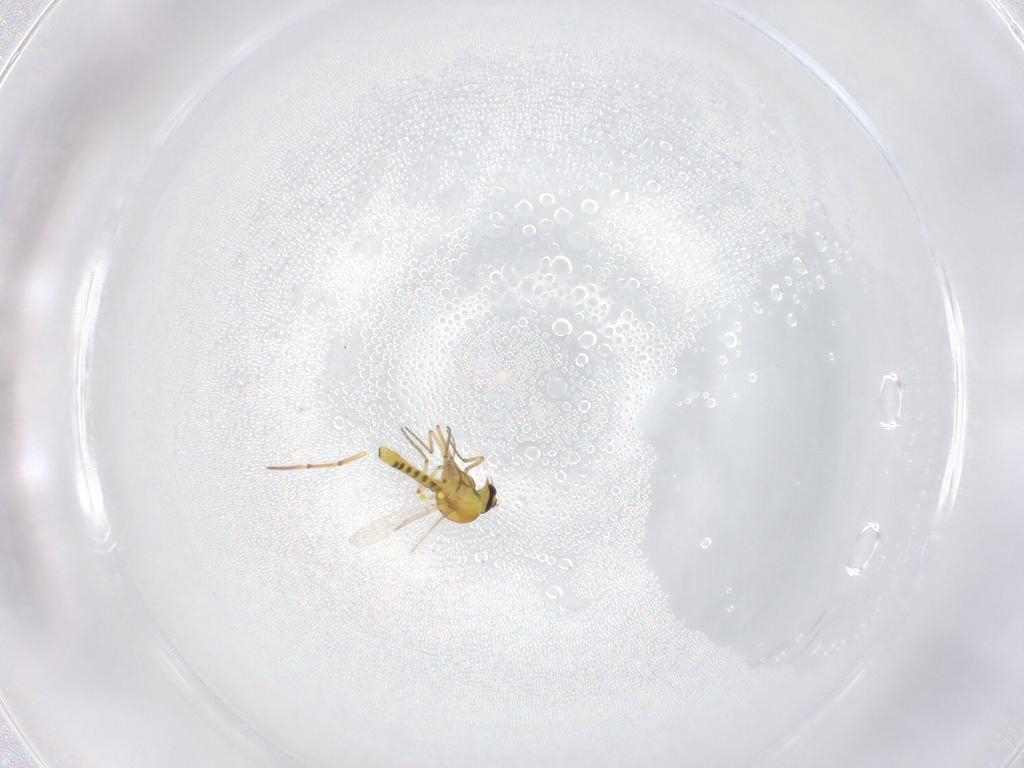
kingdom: Animalia
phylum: Arthropoda
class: Insecta
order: Diptera
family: Ceratopogonidae
